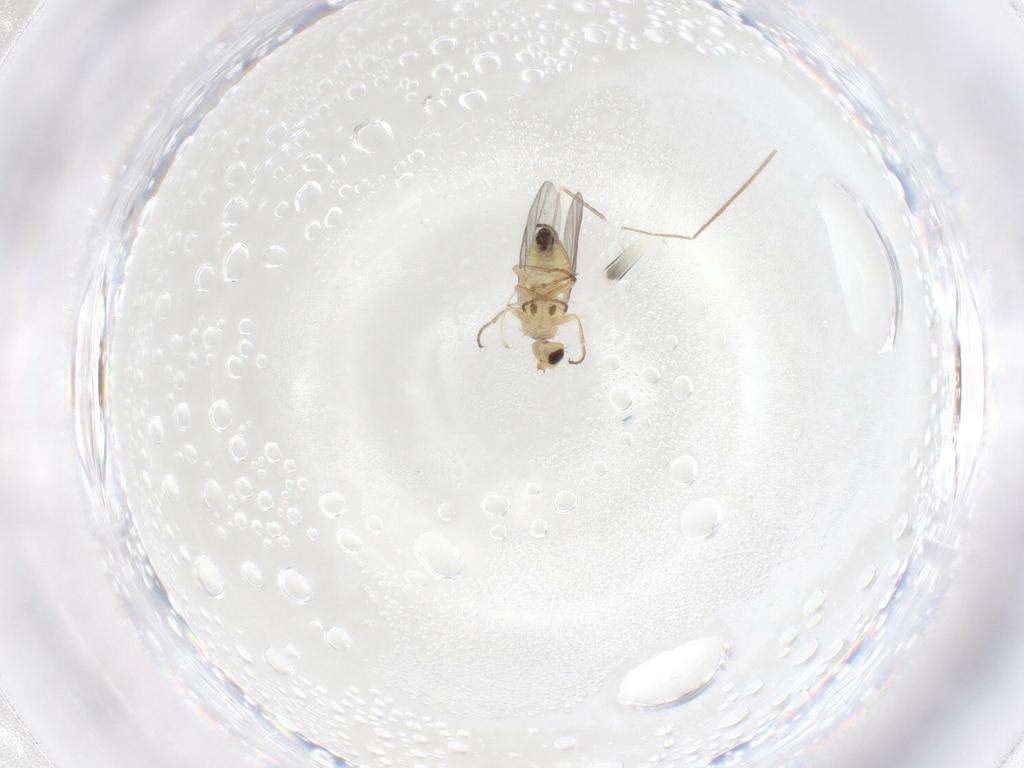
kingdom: Animalia
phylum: Arthropoda
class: Insecta
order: Diptera
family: Agromyzidae
